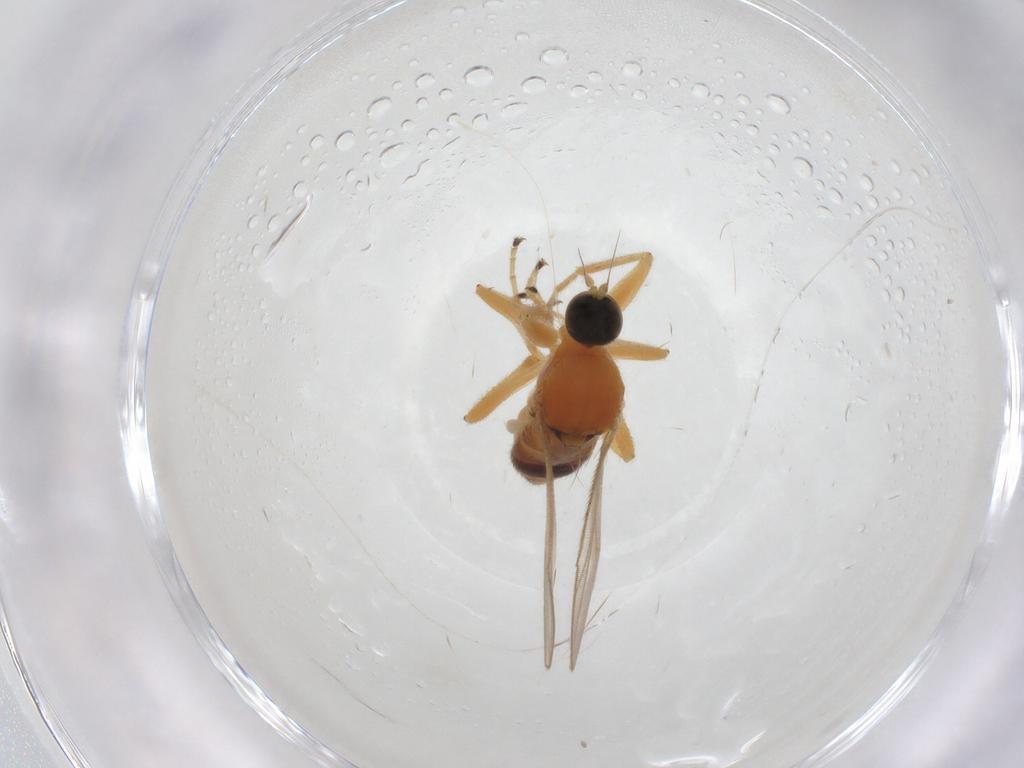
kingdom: Animalia
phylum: Arthropoda
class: Insecta
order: Diptera
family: Hybotidae
